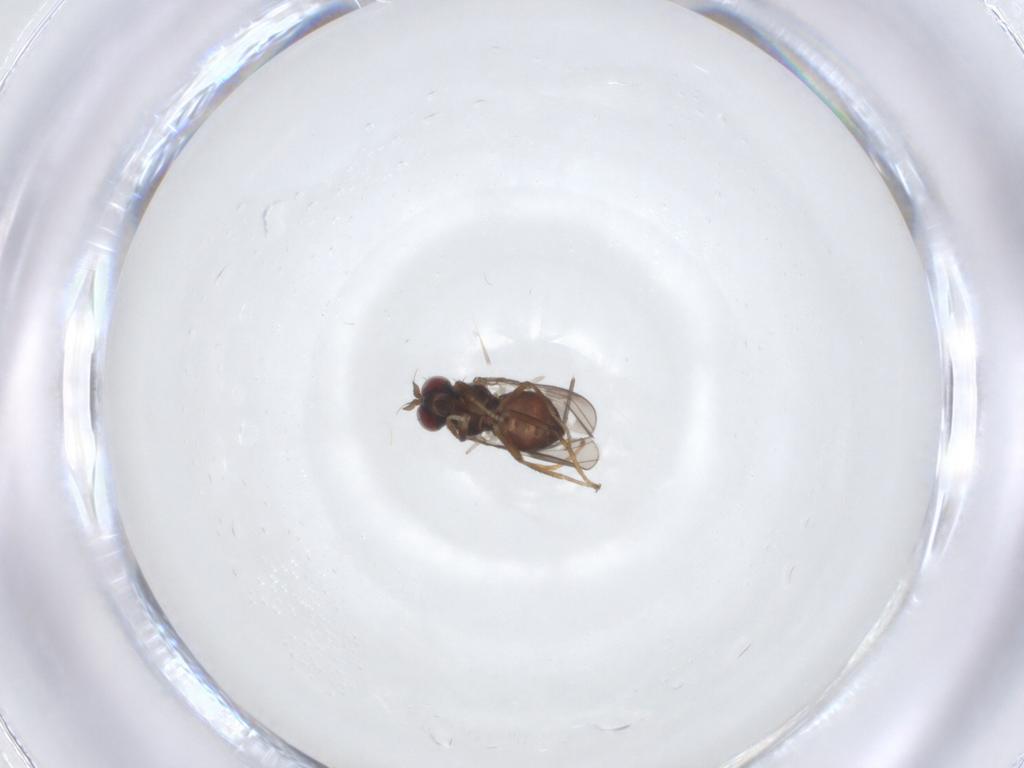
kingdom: Animalia
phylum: Arthropoda
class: Insecta
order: Diptera
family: Ephydridae
